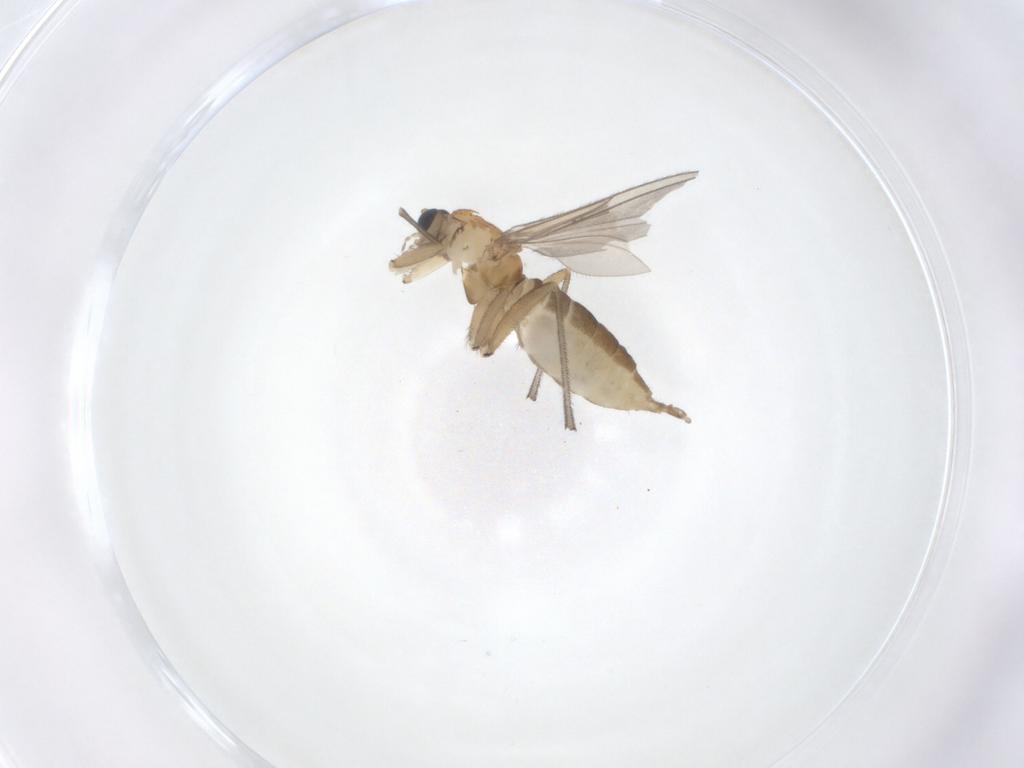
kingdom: Animalia
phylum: Arthropoda
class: Insecta
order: Diptera
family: Sciaridae
